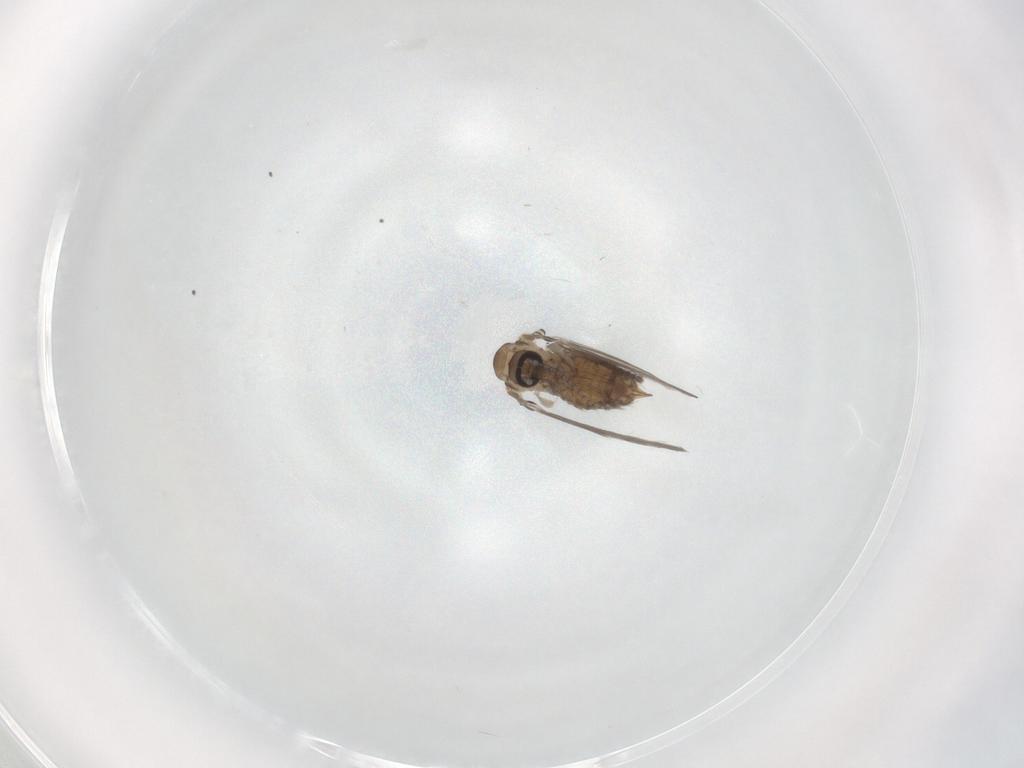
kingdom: Animalia
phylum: Arthropoda
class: Insecta
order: Diptera
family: Psychodidae
